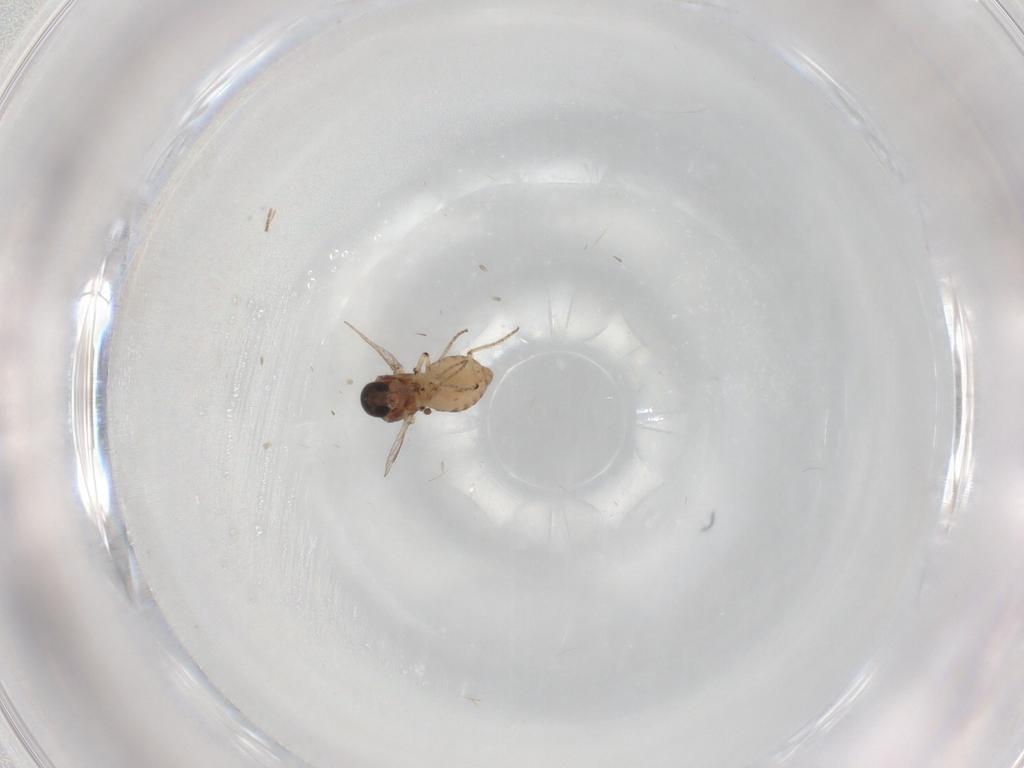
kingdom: Animalia
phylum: Arthropoda
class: Insecta
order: Diptera
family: Ceratopogonidae
